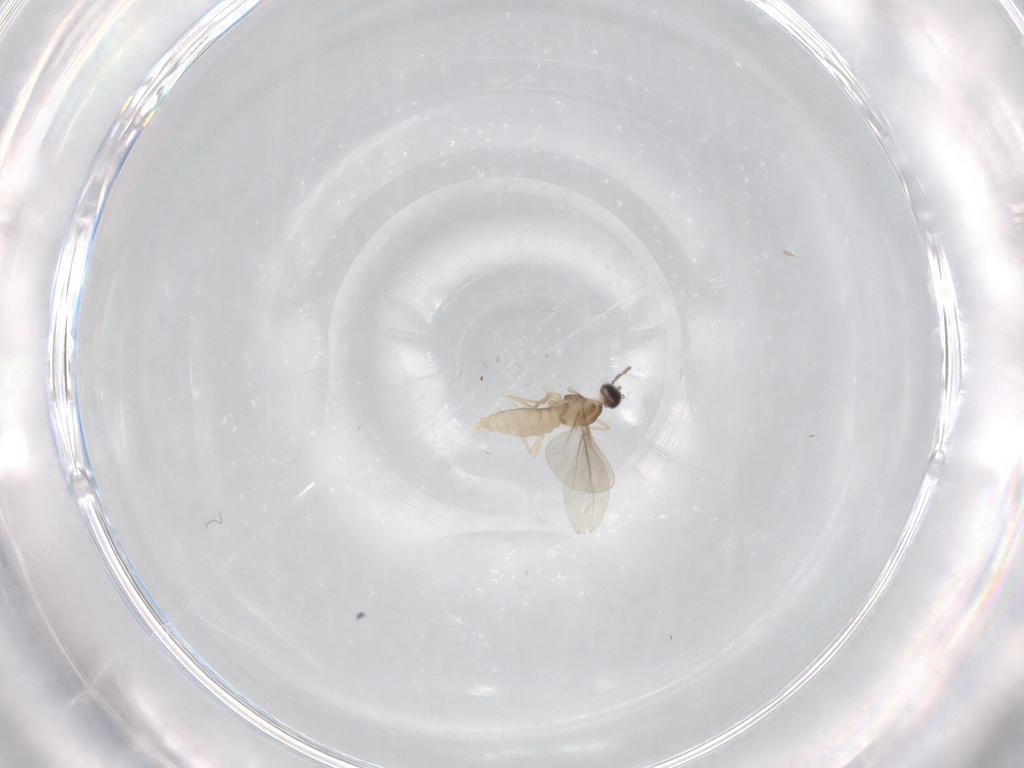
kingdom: Animalia
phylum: Arthropoda
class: Insecta
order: Diptera
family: Cecidomyiidae
